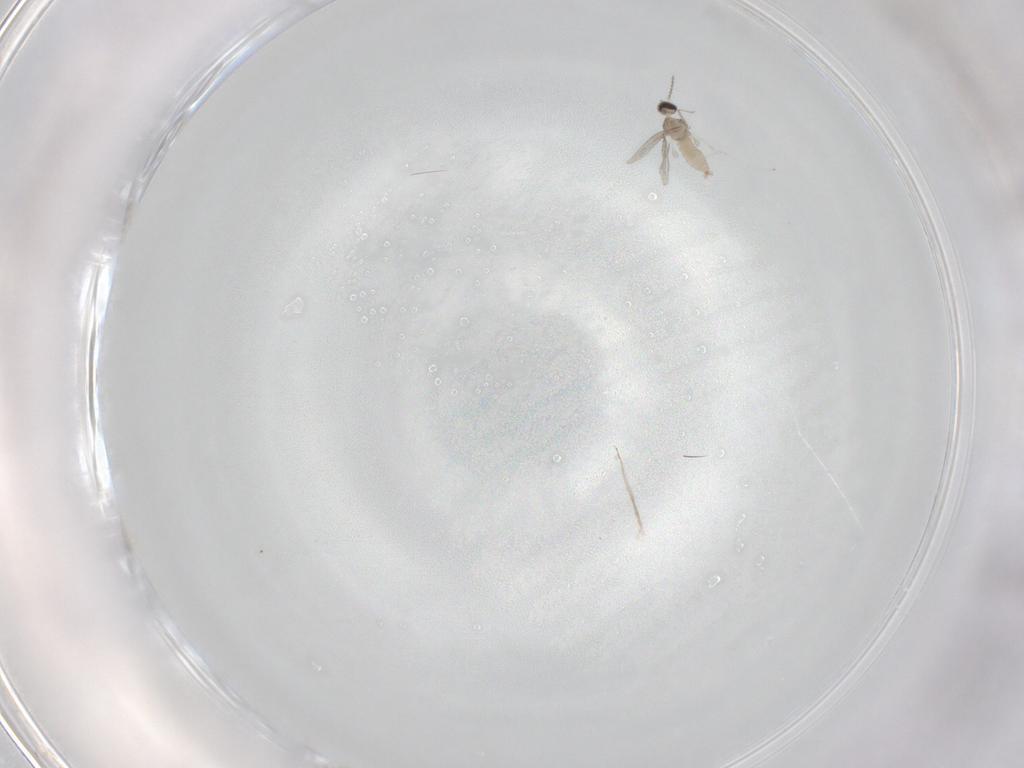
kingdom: Animalia
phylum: Arthropoda
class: Insecta
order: Diptera
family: Cecidomyiidae
